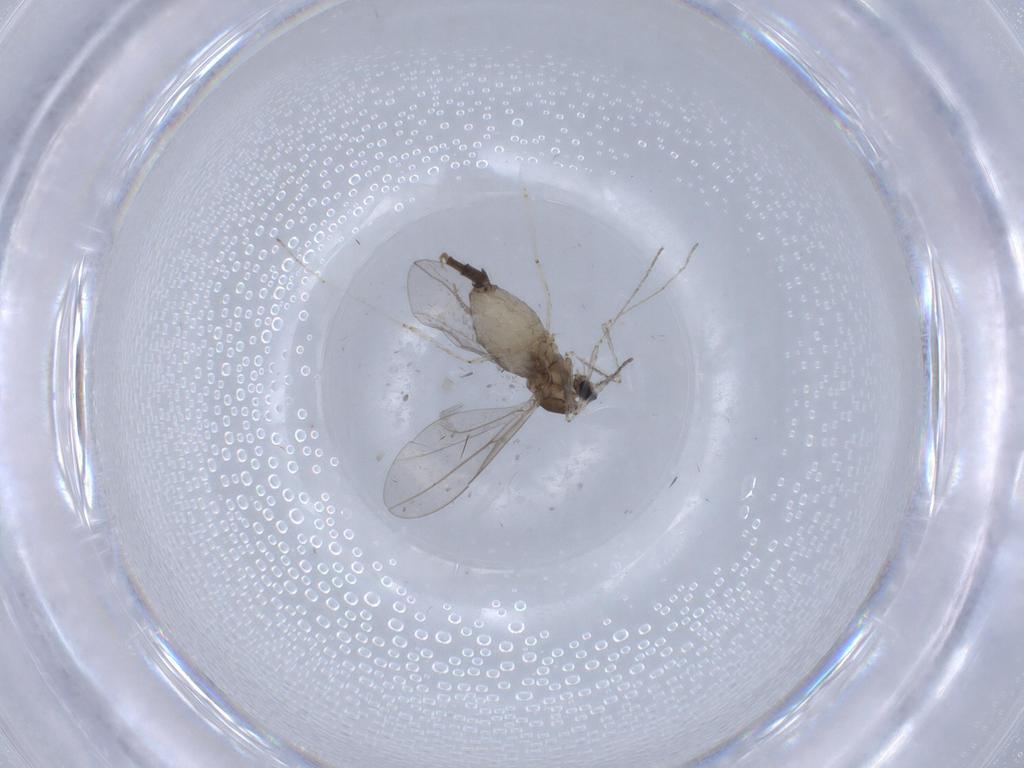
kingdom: Animalia
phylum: Arthropoda
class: Insecta
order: Diptera
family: Cecidomyiidae
